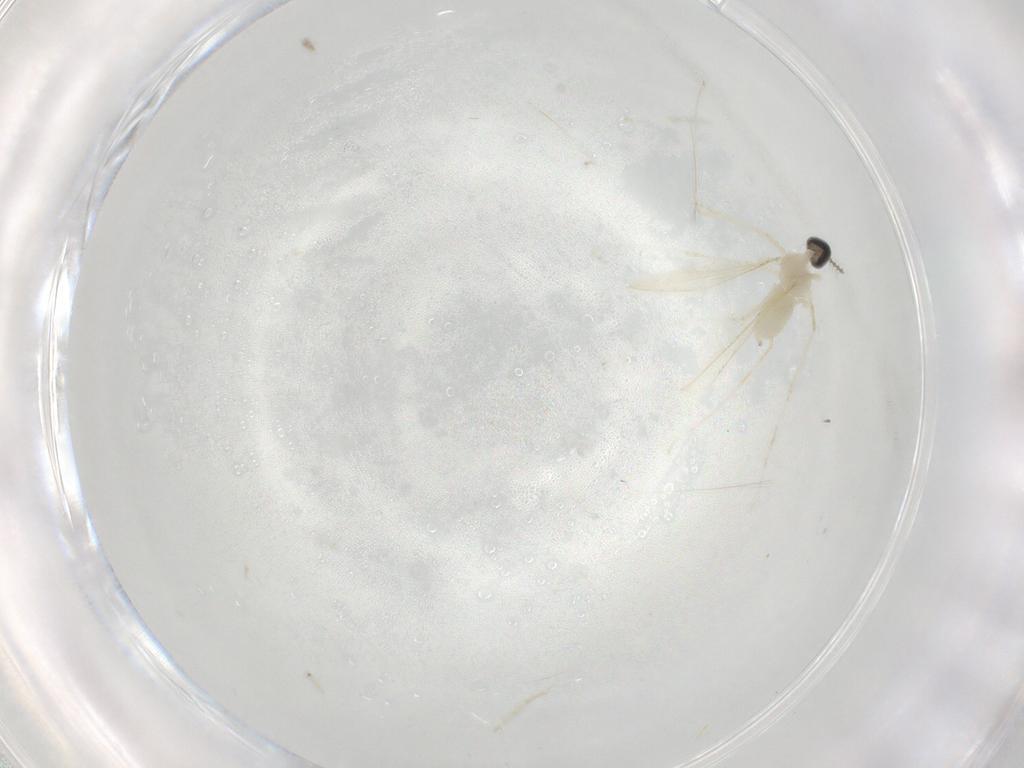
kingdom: Animalia
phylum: Arthropoda
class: Insecta
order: Diptera
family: Cecidomyiidae
